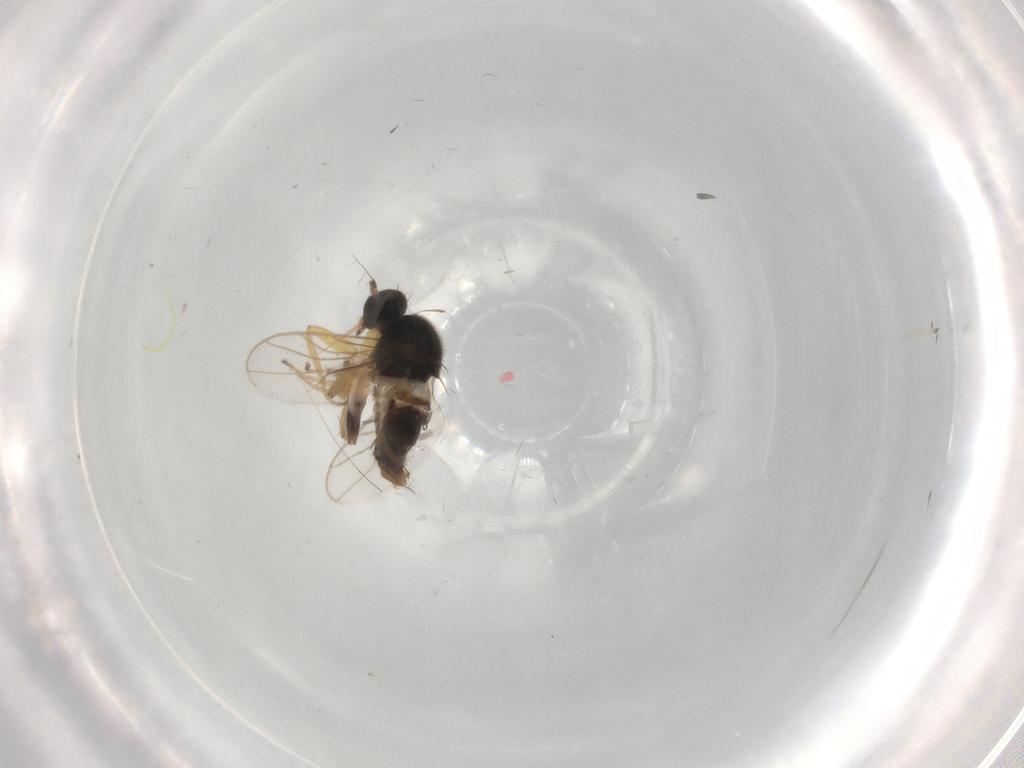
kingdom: Animalia
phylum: Arthropoda
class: Insecta
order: Diptera
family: Hybotidae
